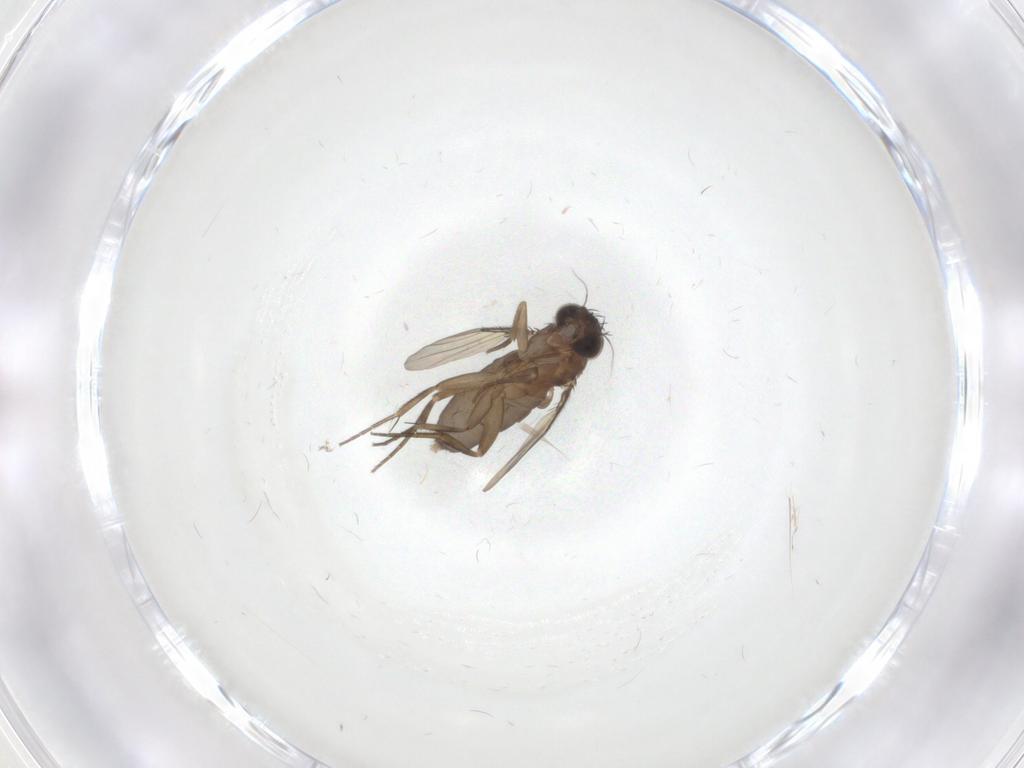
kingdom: Animalia
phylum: Arthropoda
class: Insecta
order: Diptera
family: Phoridae
